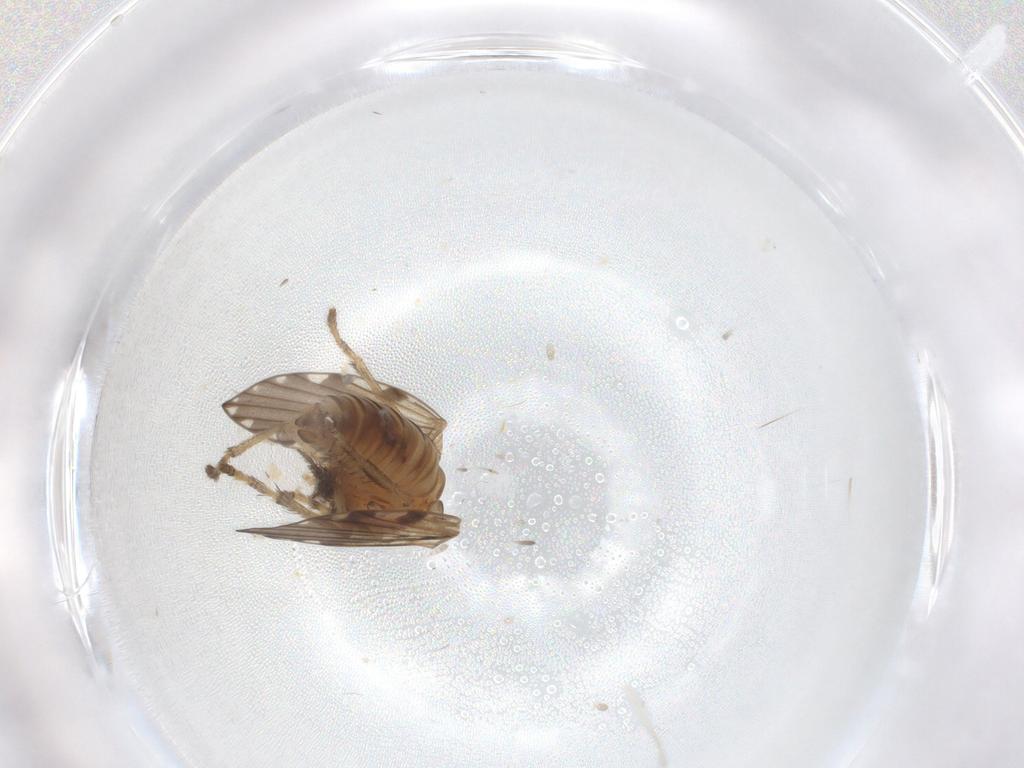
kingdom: Animalia
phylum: Arthropoda
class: Insecta
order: Diptera
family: Psychodidae
